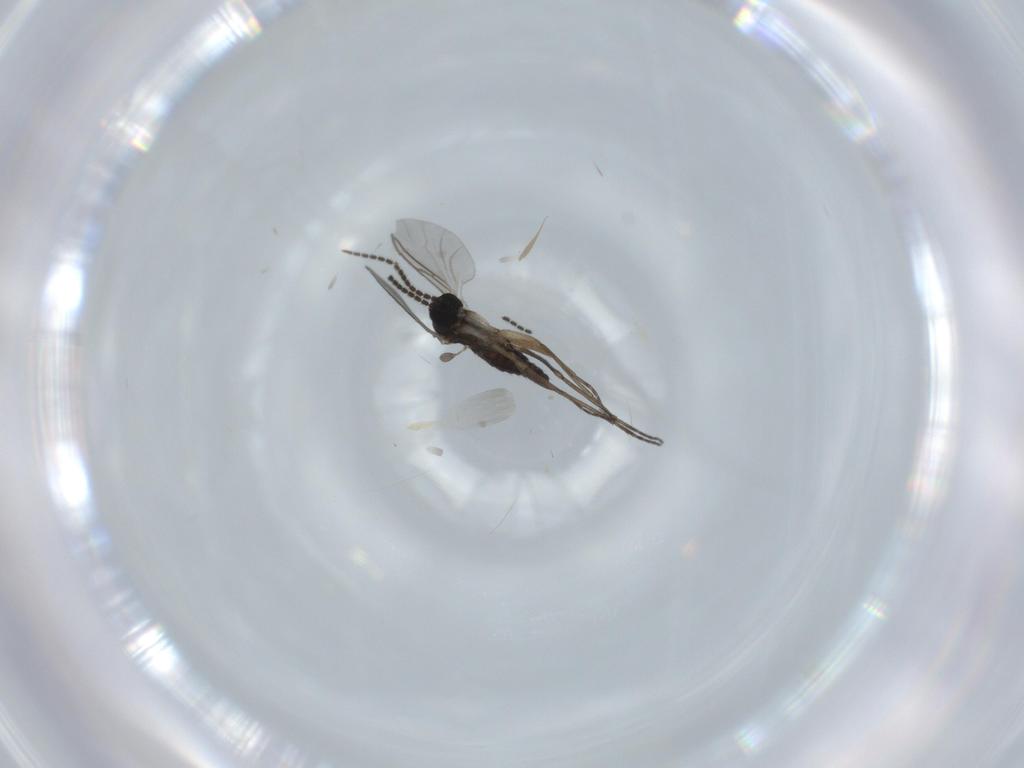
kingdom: Animalia
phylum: Arthropoda
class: Insecta
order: Diptera
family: Sciaridae
